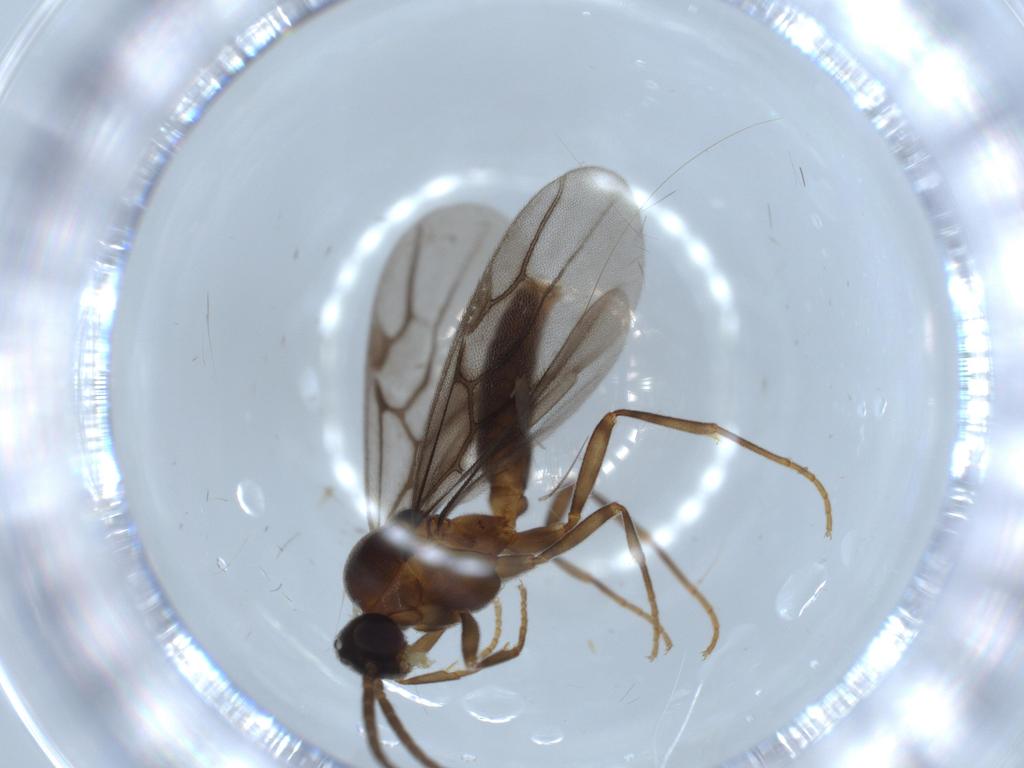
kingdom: Animalia
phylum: Arthropoda
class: Insecta
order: Hymenoptera
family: Formicidae
